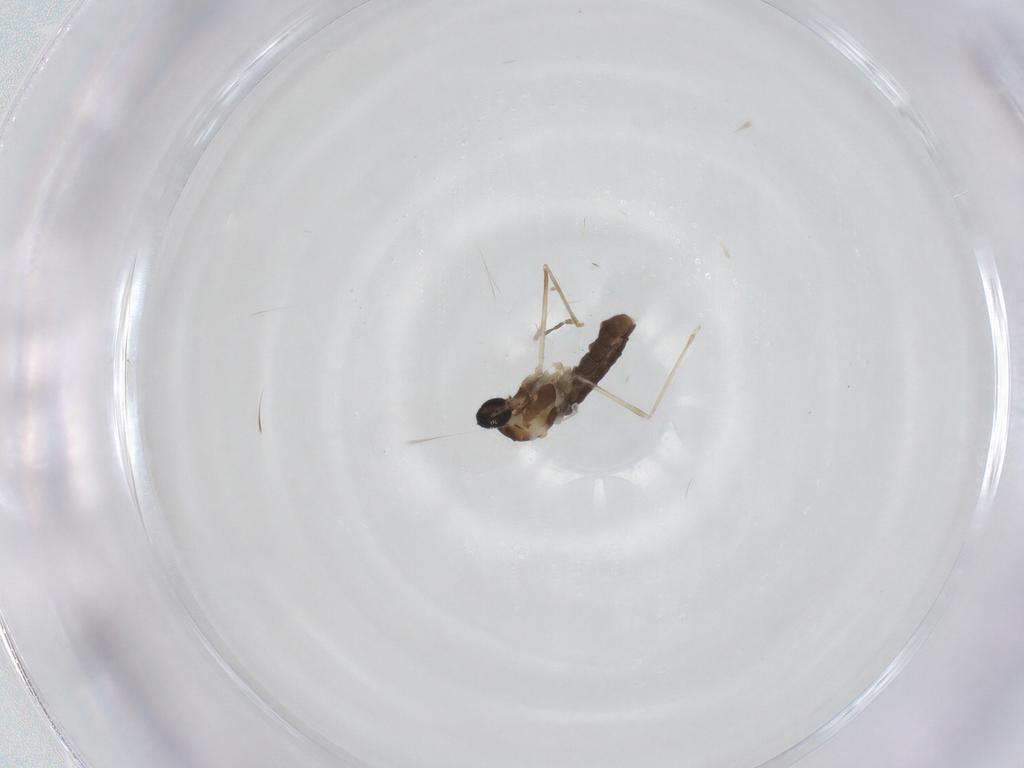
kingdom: Animalia
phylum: Arthropoda
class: Insecta
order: Diptera
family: Cecidomyiidae
